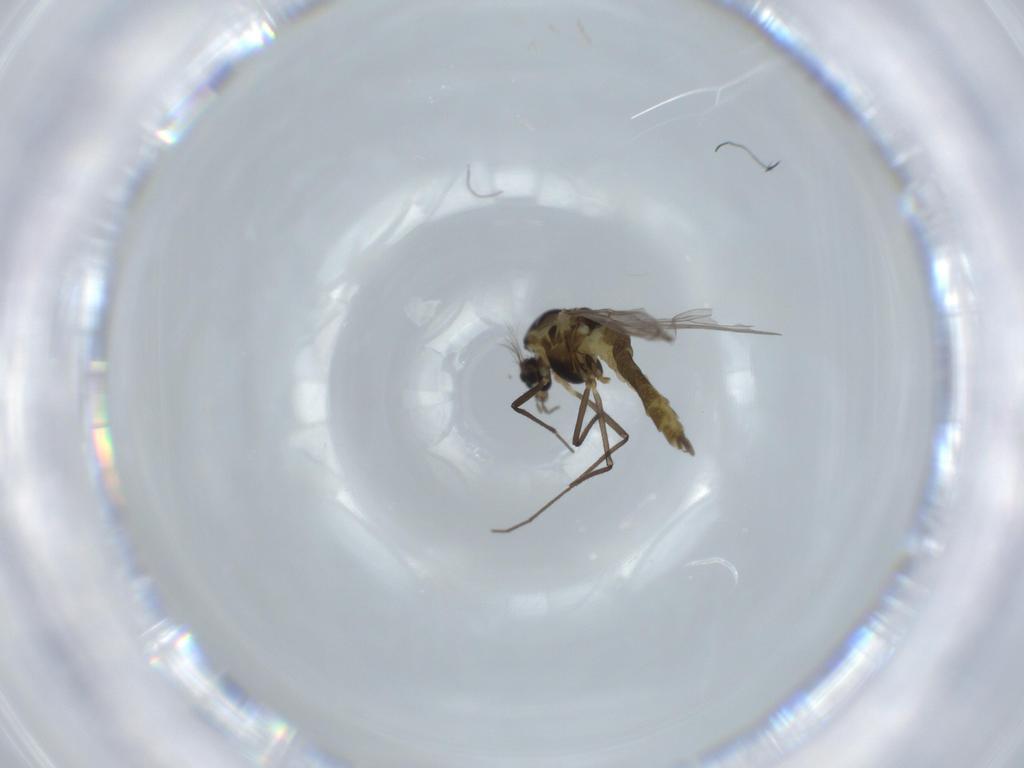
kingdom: Animalia
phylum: Arthropoda
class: Insecta
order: Diptera
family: Chironomidae
